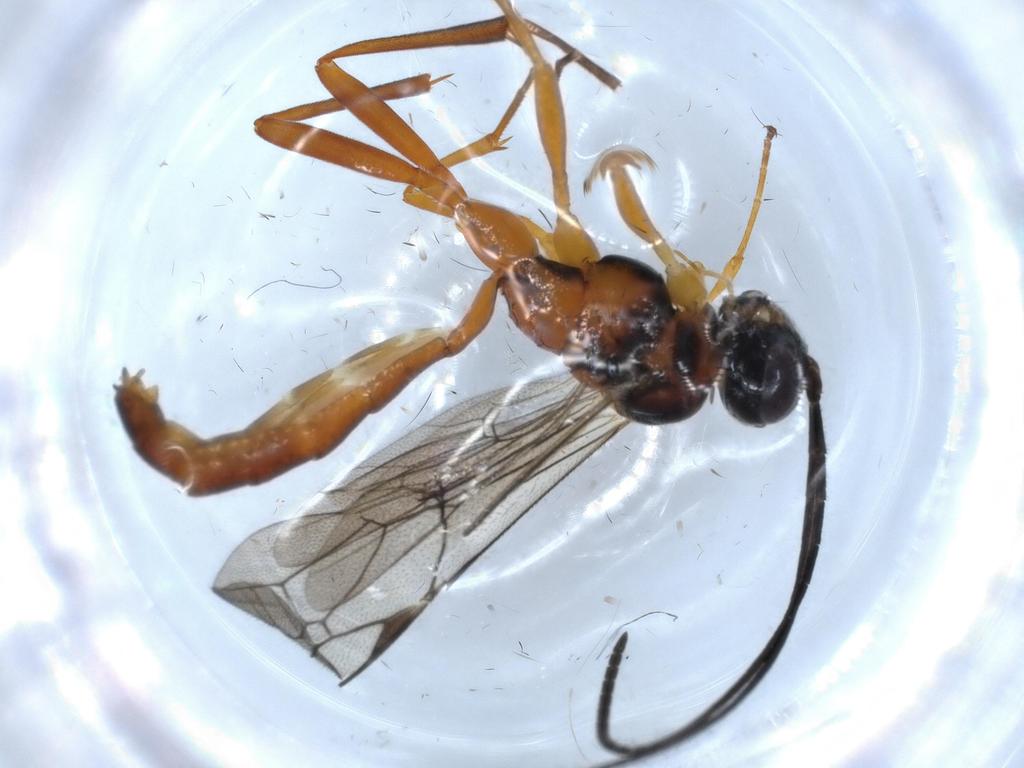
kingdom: Animalia
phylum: Arthropoda
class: Insecta
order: Hymenoptera
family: Ichneumonidae
